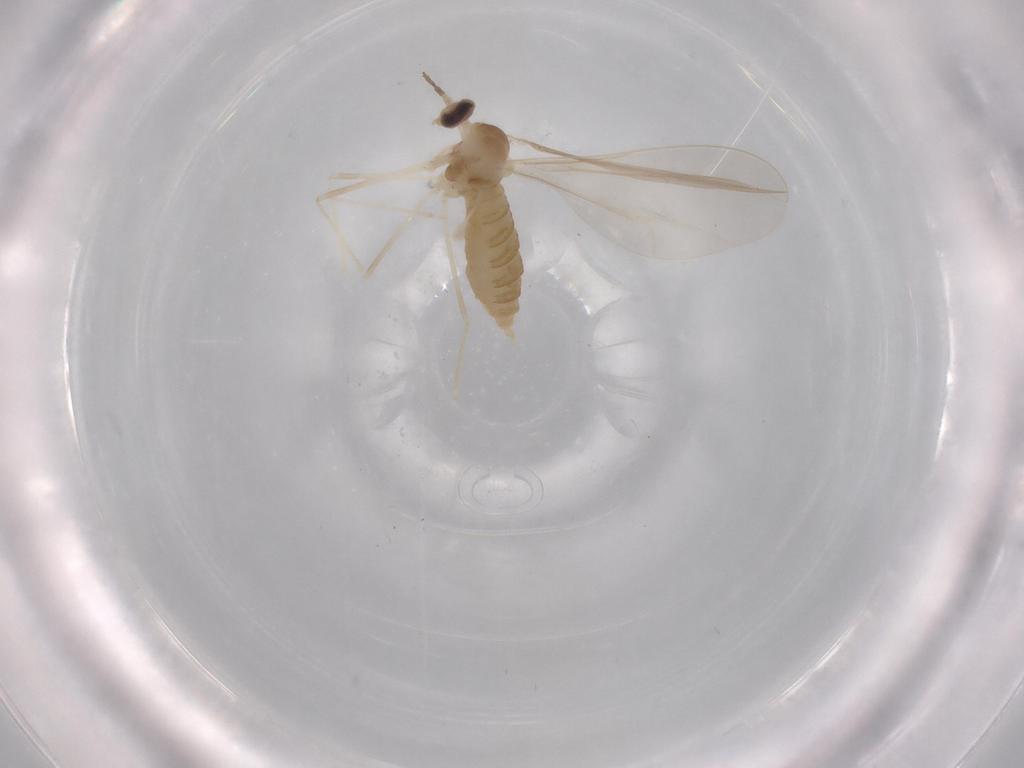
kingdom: Animalia
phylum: Arthropoda
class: Insecta
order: Diptera
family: Cecidomyiidae
